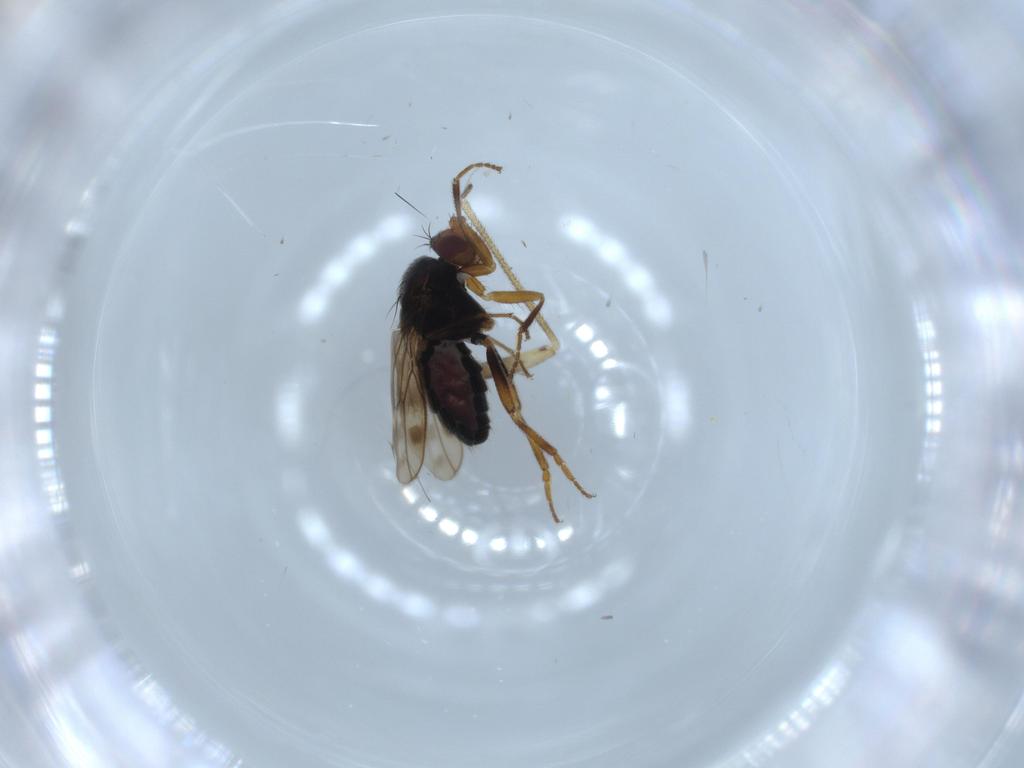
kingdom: Animalia
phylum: Arthropoda
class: Insecta
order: Diptera
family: Sphaeroceridae
